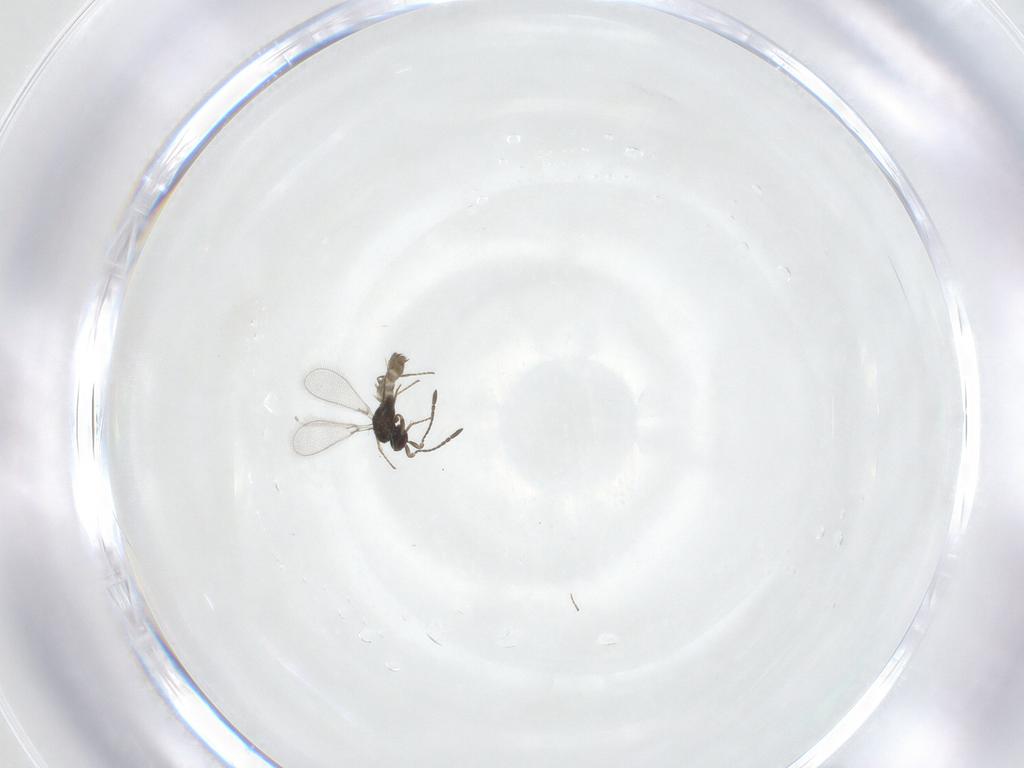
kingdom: Animalia
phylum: Arthropoda
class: Insecta
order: Hymenoptera
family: Mymaridae
